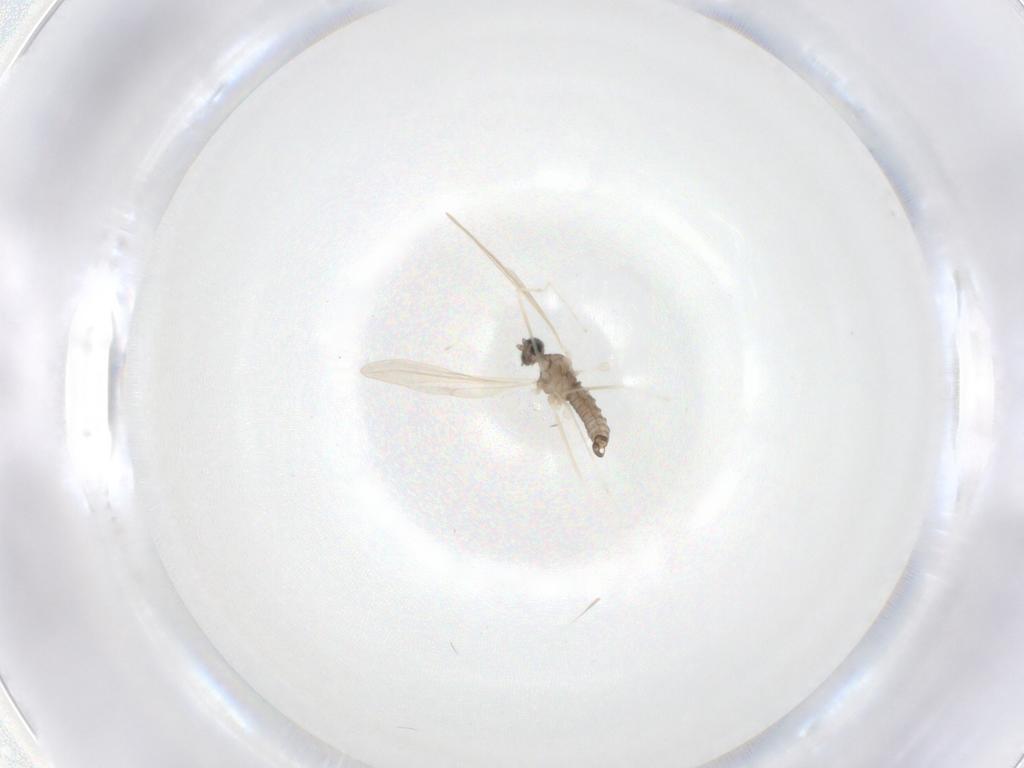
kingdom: Animalia
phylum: Arthropoda
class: Insecta
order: Diptera
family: Cecidomyiidae
